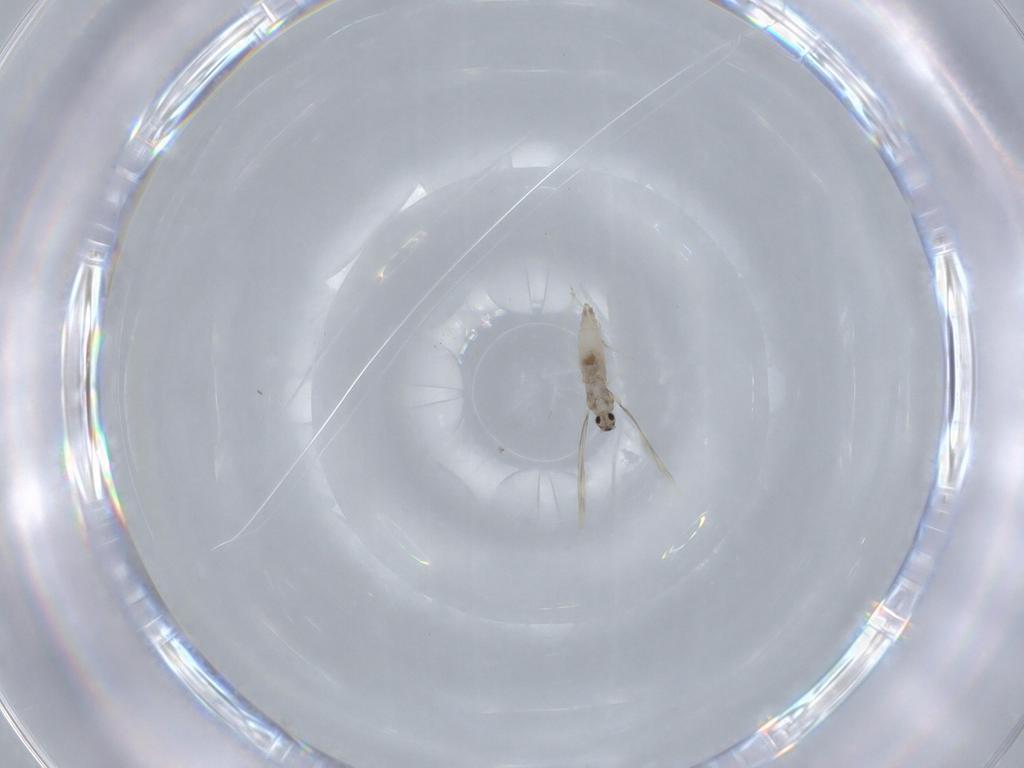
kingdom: Animalia
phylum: Arthropoda
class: Insecta
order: Diptera
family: Cecidomyiidae
